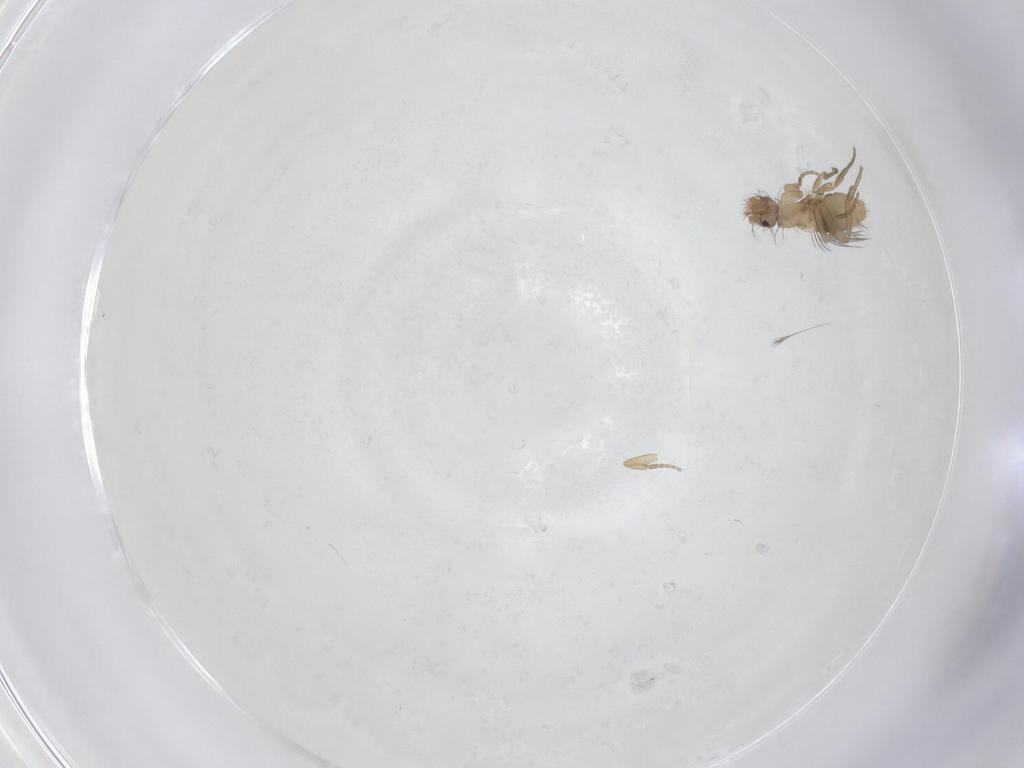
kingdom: Animalia
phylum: Arthropoda
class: Insecta
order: Diptera
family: Phoridae
